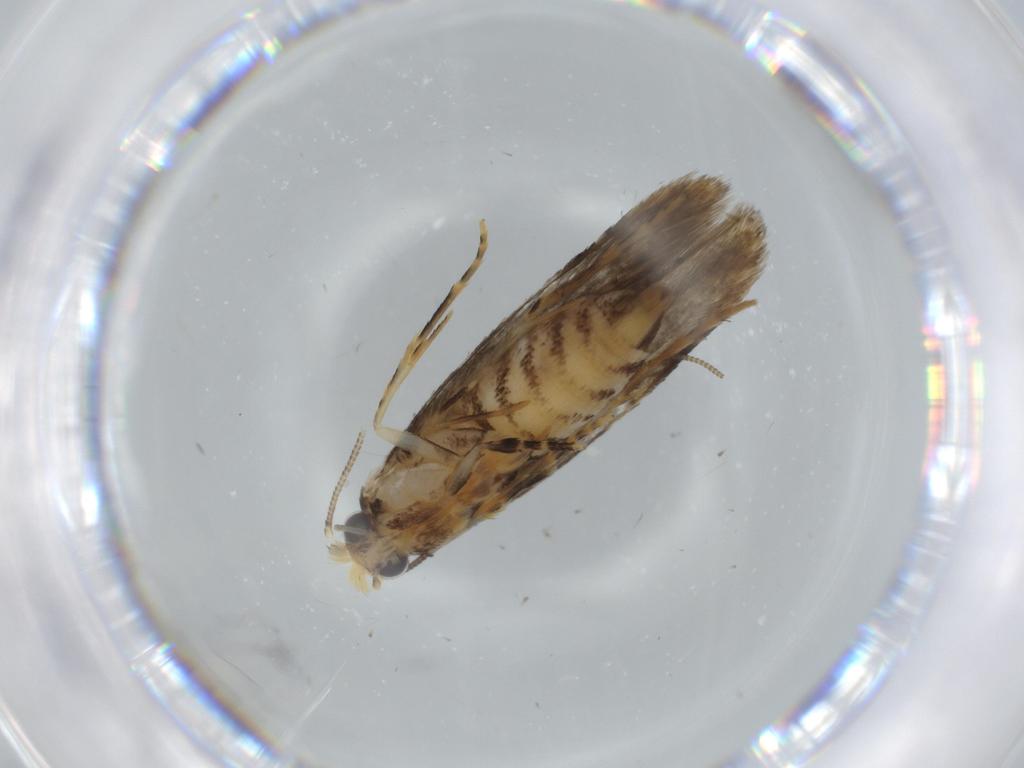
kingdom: Animalia
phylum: Arthropoda
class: Insecta
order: Lepidoptera
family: Tineidae
